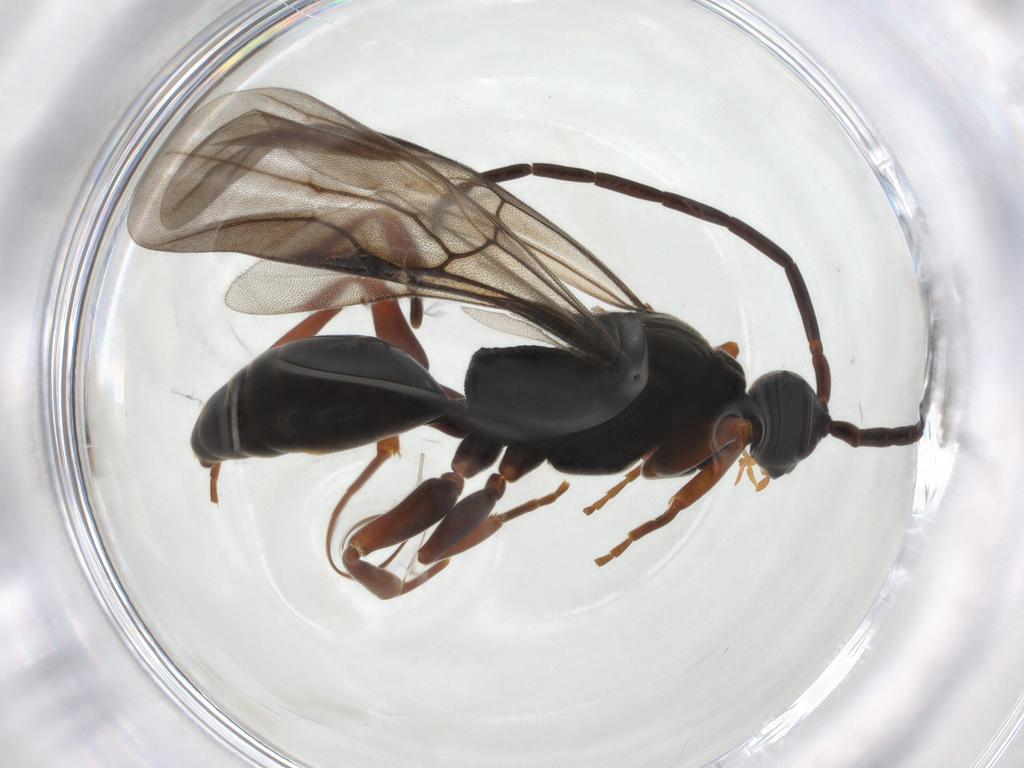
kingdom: Animalia
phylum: Arthropoda
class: Insecta
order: Hymenoptera
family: Embolemidae
